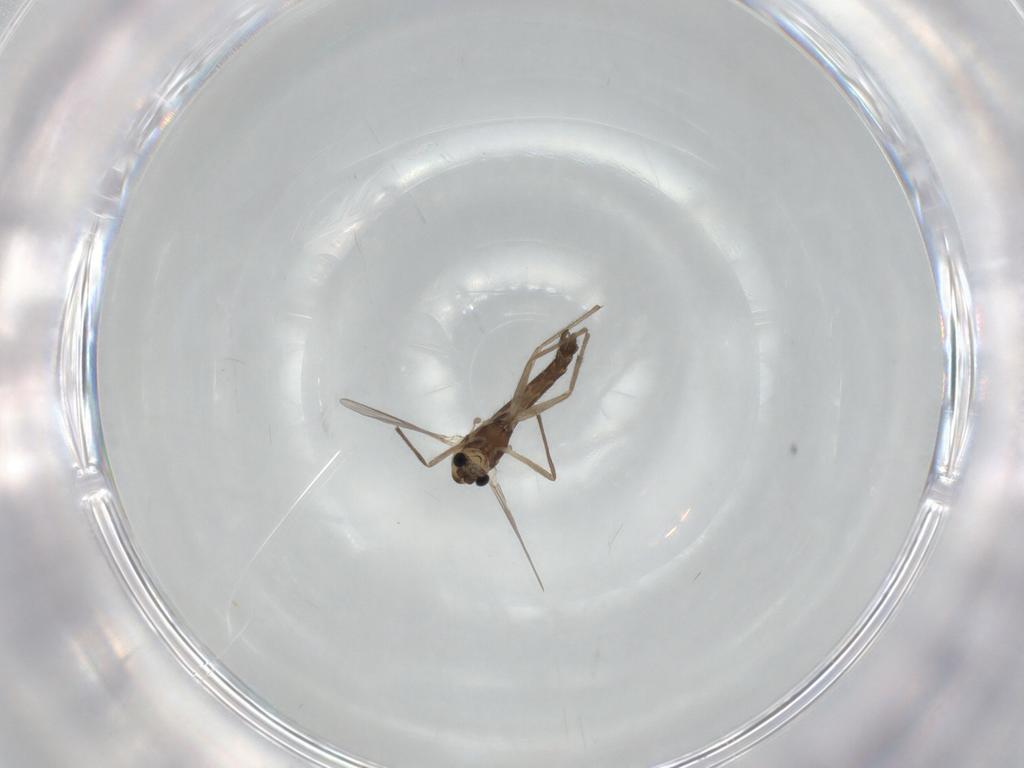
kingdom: Animalia
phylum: Arthropoda
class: Insecta
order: Diptera
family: Chironomidae
